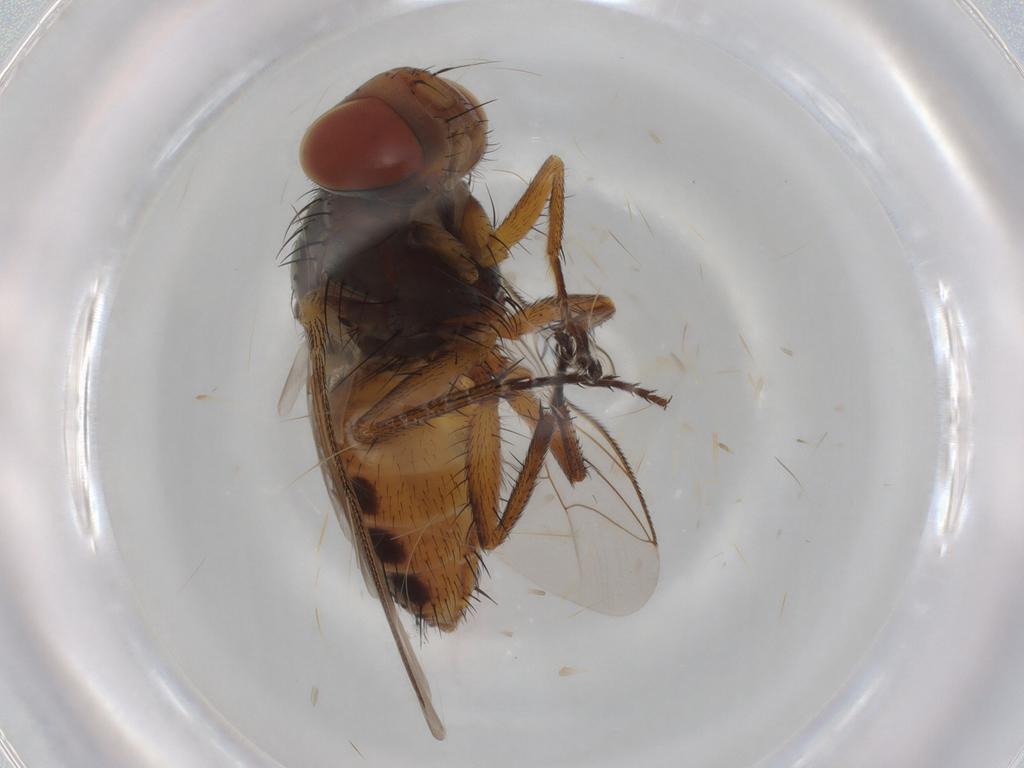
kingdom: Animalia
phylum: Arthropoda
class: Insecta
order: Diptera
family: Sarcophagidae
